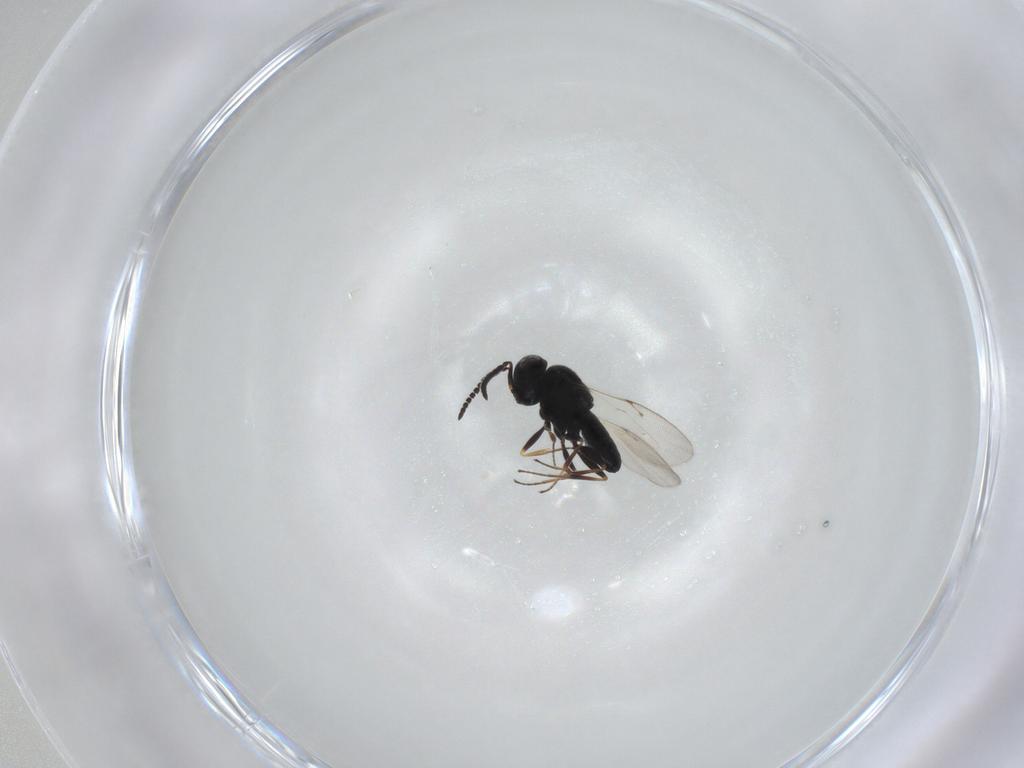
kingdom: Animalia
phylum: Arthropoda
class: Insecta
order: Hymenoptera
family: Scelionidae
